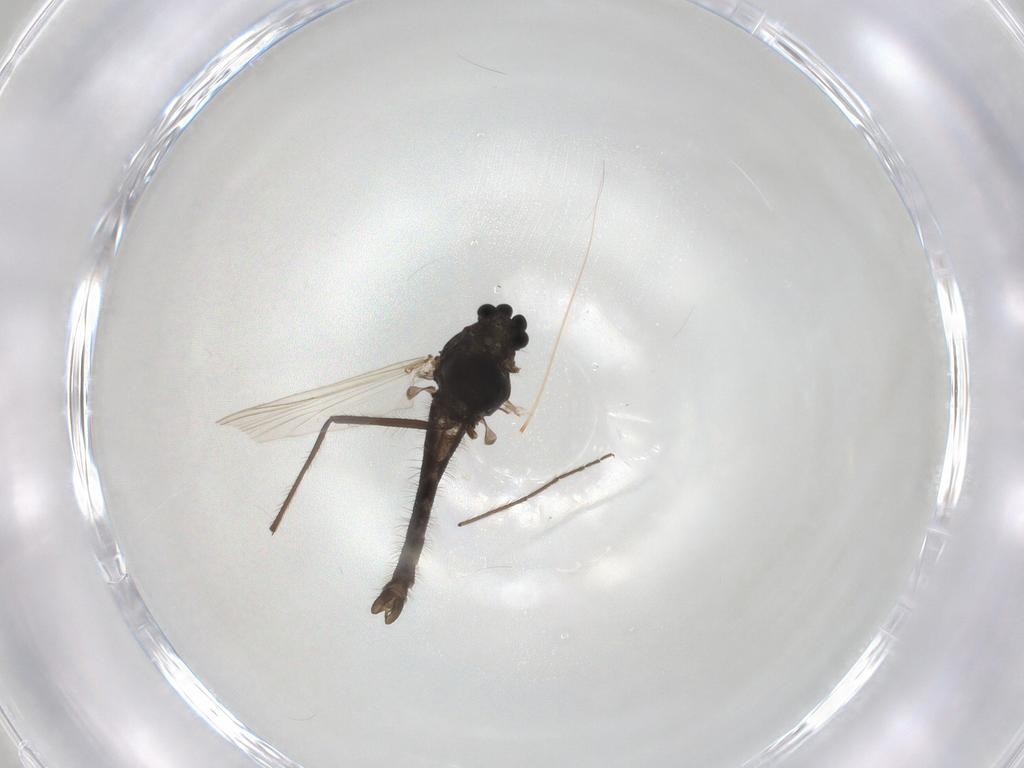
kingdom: Animalia
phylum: Arthropoda
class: Insecta
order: Diptera
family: Chironomidae
